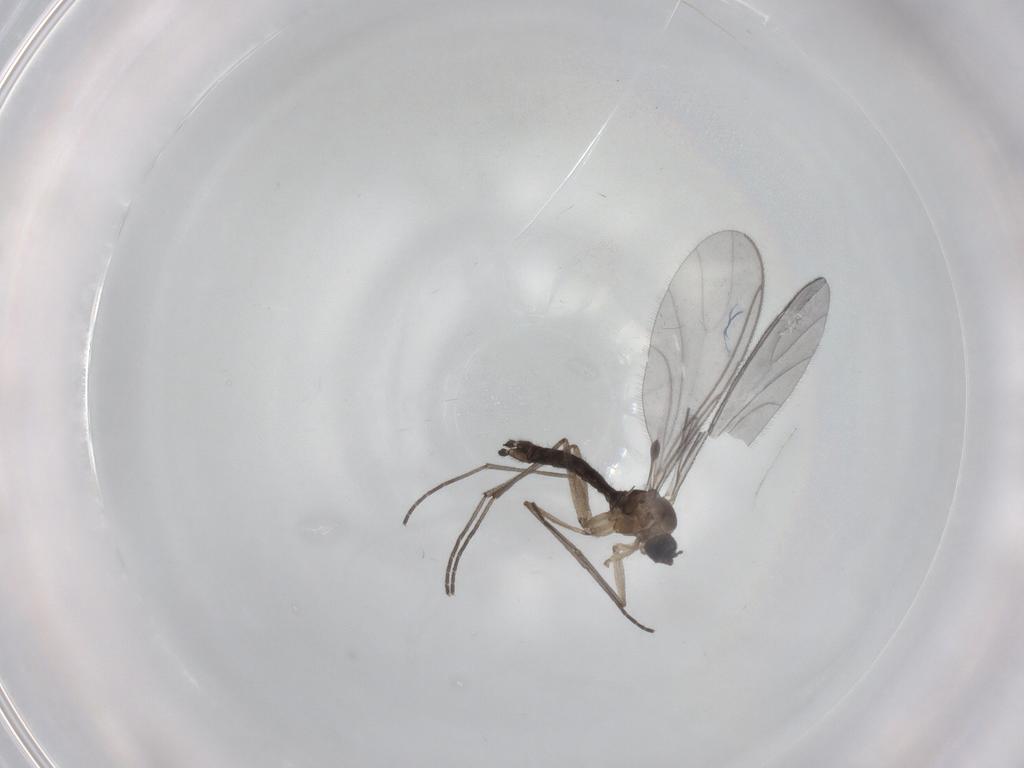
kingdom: Animalia
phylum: Arthropoda
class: Insecta
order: Diptera
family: Sciaridae
